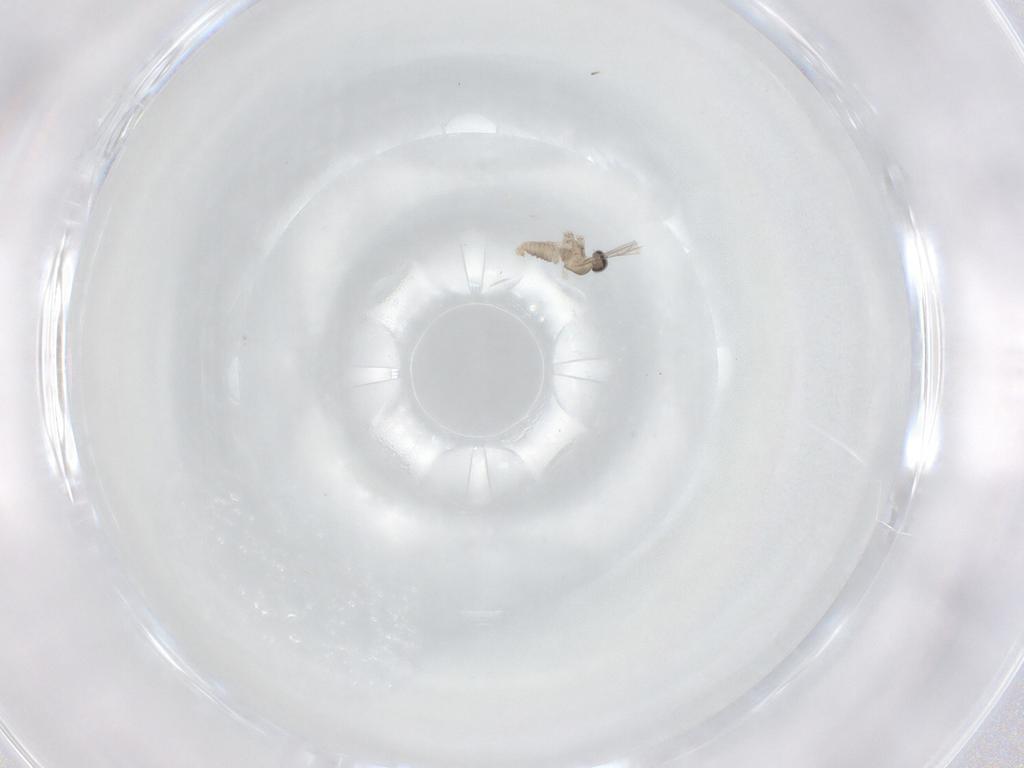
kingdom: Animalia
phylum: Arthropoda
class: Insecta
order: Diptera
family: Cecidomyiidae
